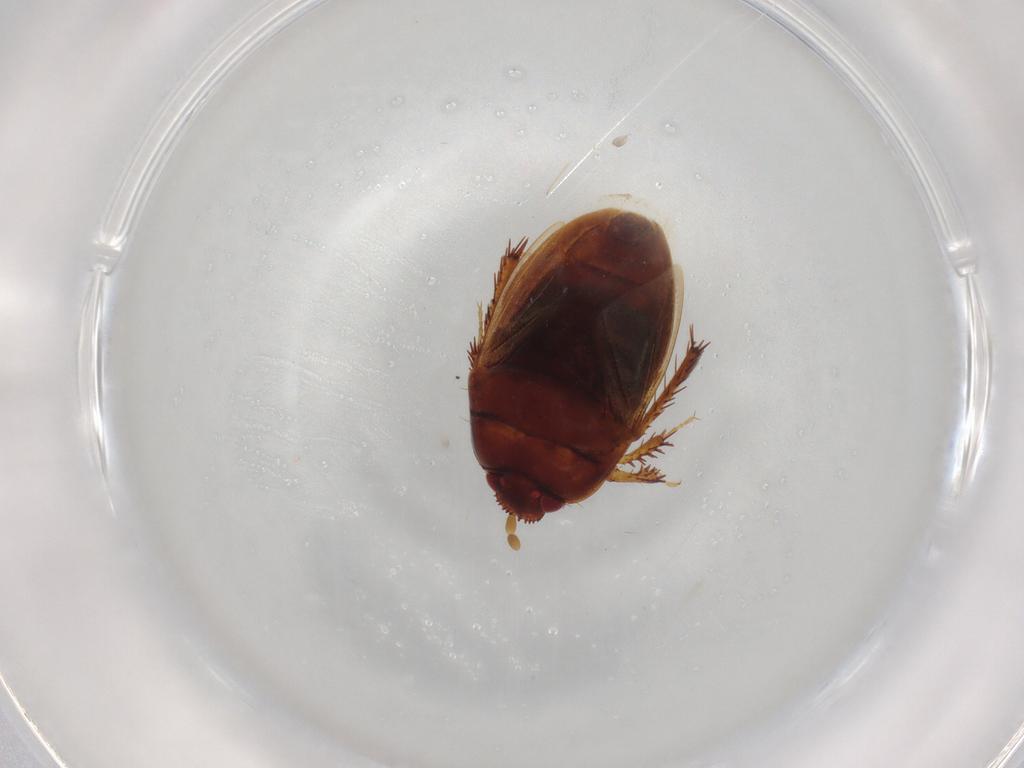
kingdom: Animalia
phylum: Arthropoda
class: Insecta
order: Hemiptera
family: Cydnidae
